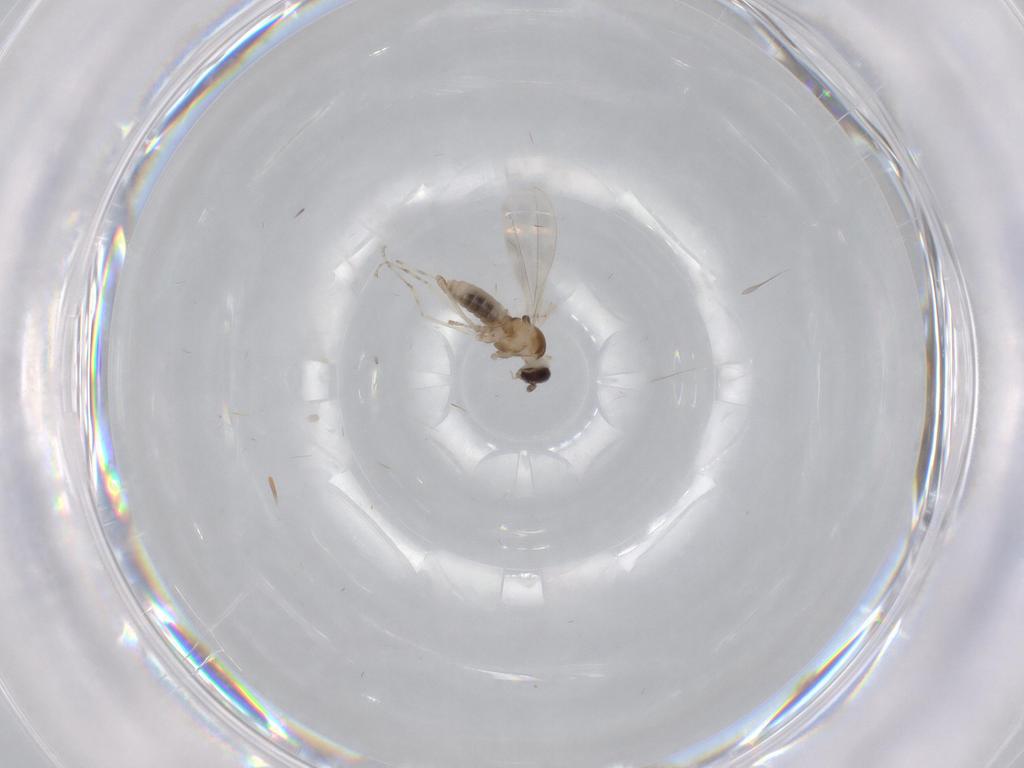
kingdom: Animalia
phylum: Arthropoda
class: Insecta
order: Diptera
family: Cecidomyiidae
